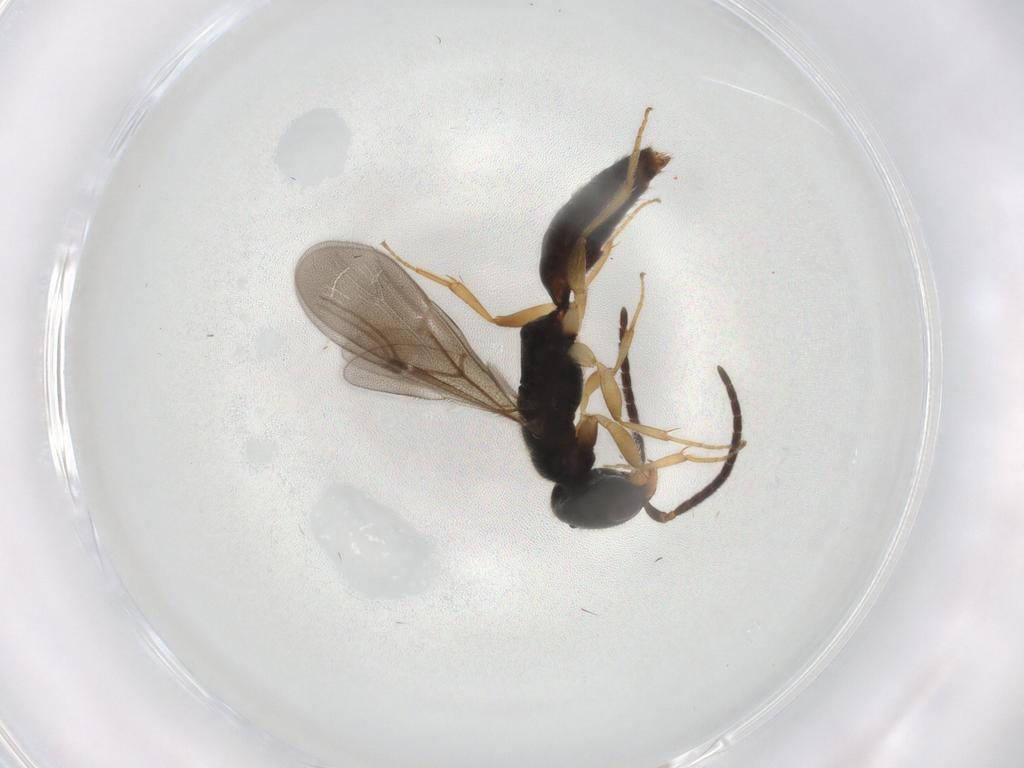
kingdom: Animalia
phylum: Arthropoda
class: Insecta
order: Hymenoptera
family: Bethylidae
